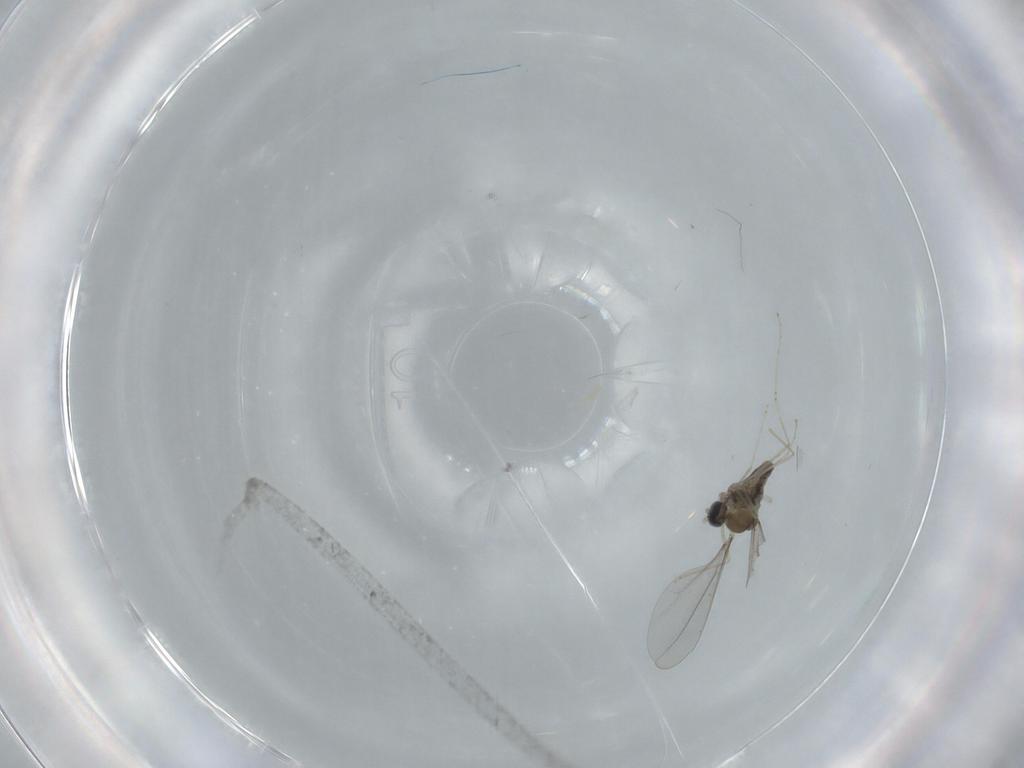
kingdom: Animalia
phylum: Arthropoda
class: Insecta
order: Diptera
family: Cecidomyiidae
